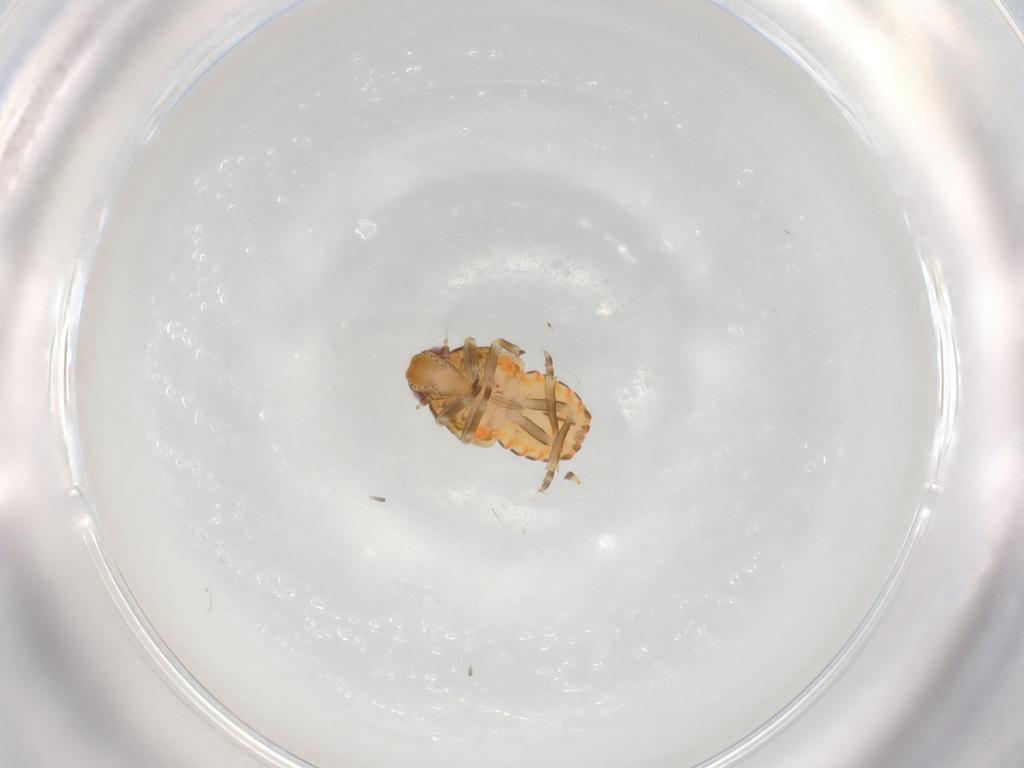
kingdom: Animalia
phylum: Arthropoda
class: Insecta
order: Hemiptera
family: Flatidae
